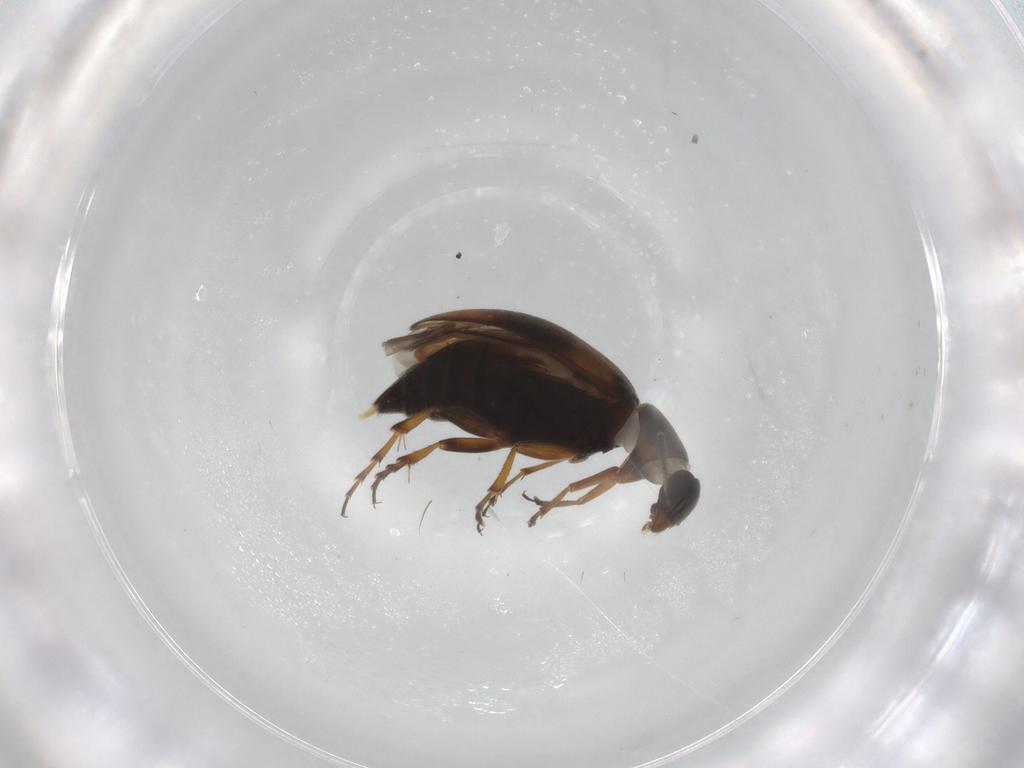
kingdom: Animalia
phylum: Arthropoda
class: Insecta
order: Coleoptera
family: Scraptiidae
